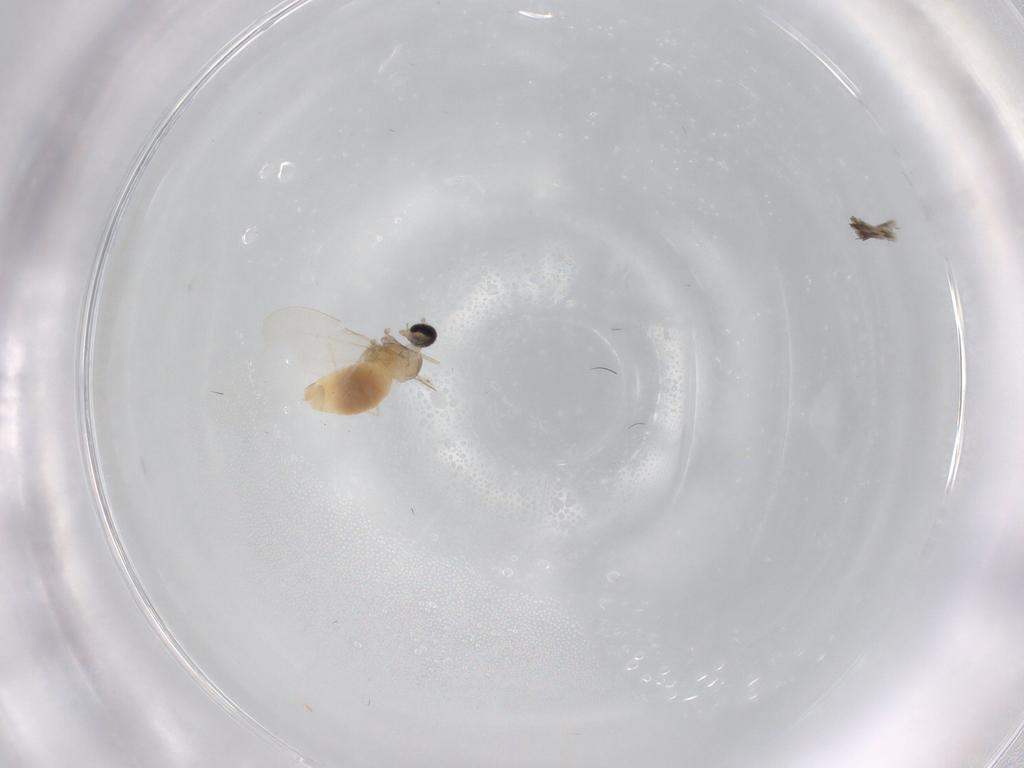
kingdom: Animalia
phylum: Arthropoda
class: Insecta
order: Diptera
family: Cecidomyiidae
